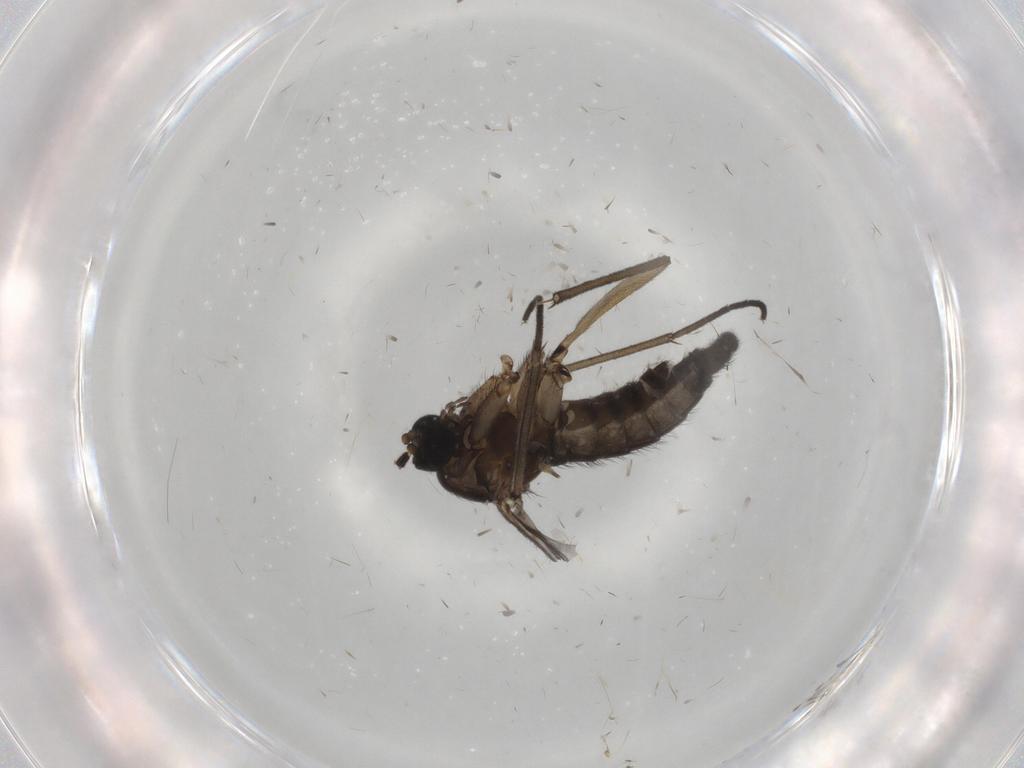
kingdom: Animalia
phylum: Arthropoda
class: Insecta
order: Diptera
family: Sciaridae
